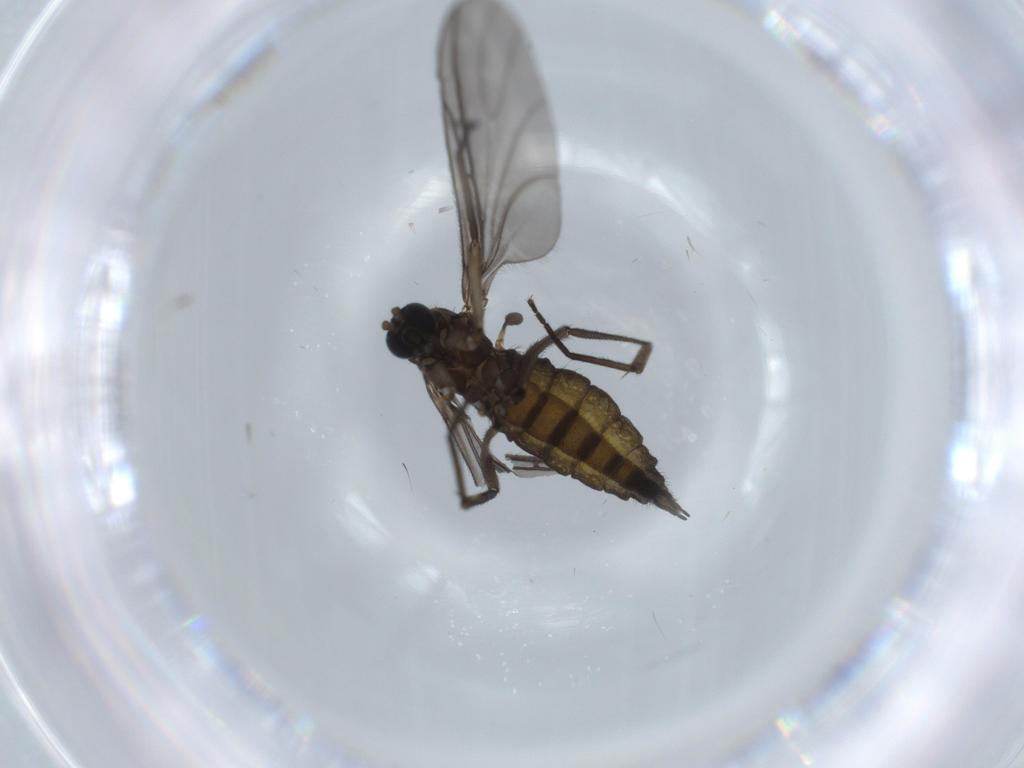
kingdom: Animalia
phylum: Arthropoda
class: Insecta
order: Diptera
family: Sciaridae
